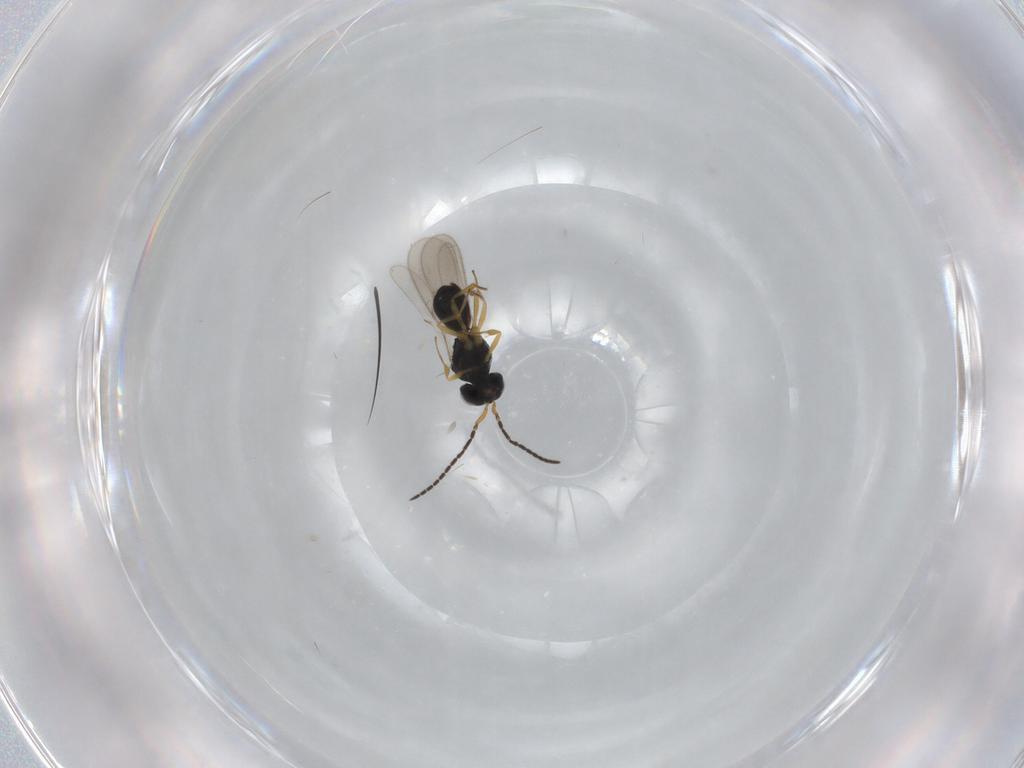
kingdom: Animalia
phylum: Arthropoda
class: Insecta
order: Hymenoptera
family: Scelionidae
